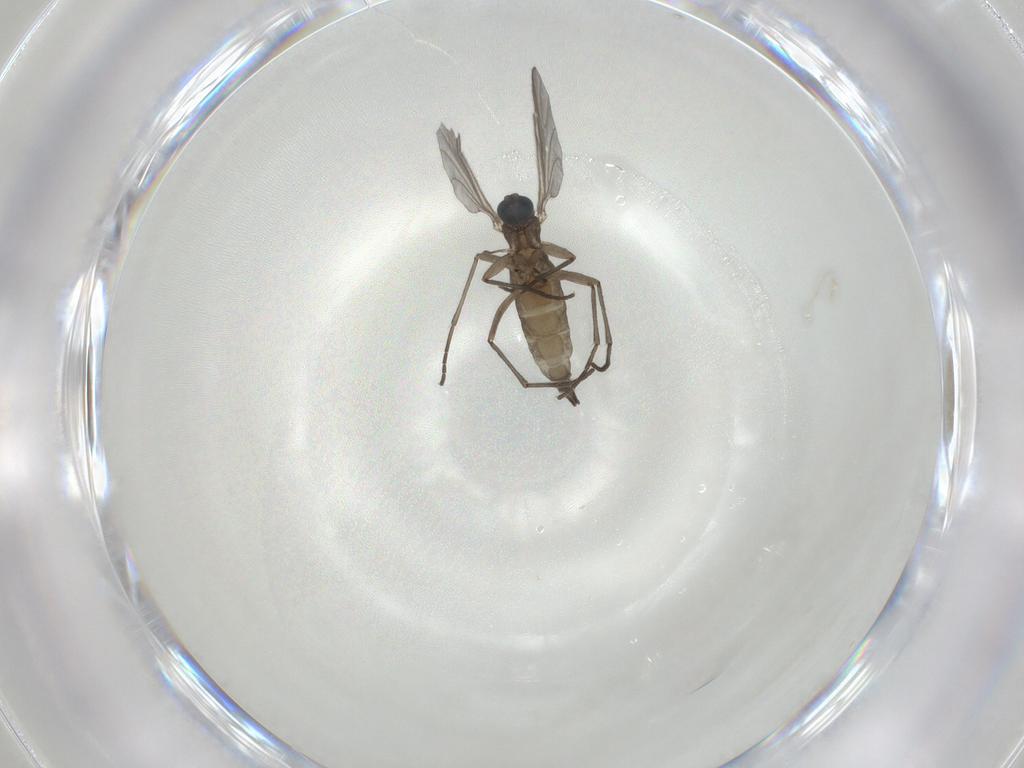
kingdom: Animalia
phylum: Arthropoda
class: Insecta
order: Diptera
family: Sciaridae
